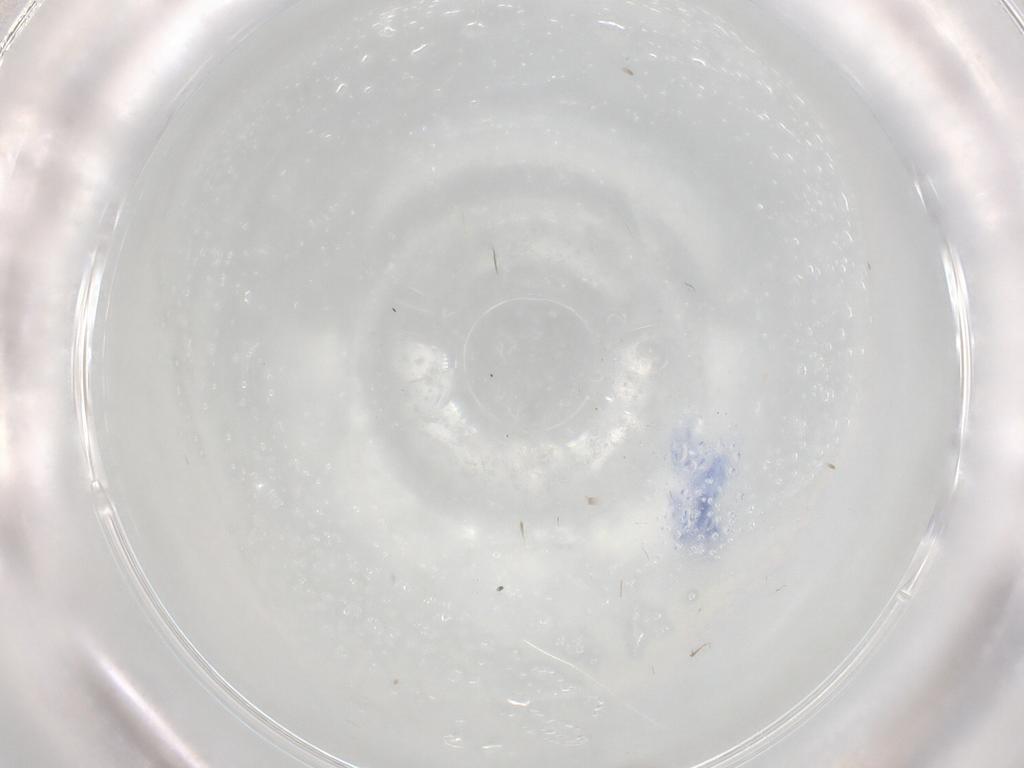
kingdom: Animalia
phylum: Arthropoda
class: Insecta
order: Diptera
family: Cecidomyiidae
